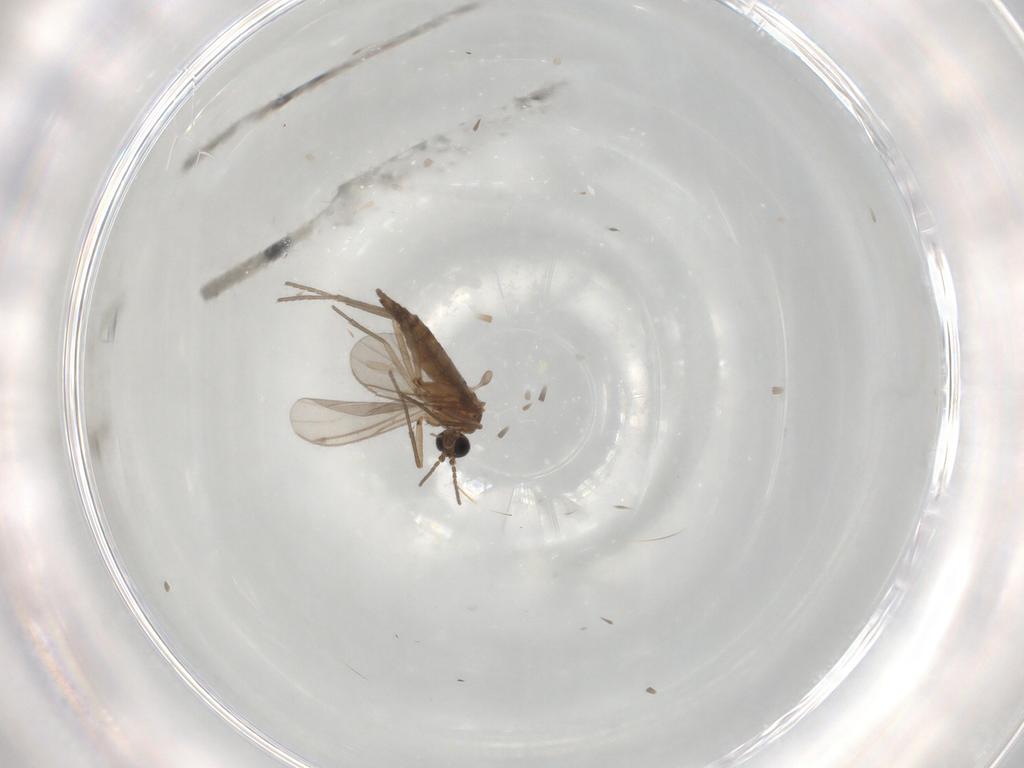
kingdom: Animalia
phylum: Arthropoda
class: Insecta
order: Diptera
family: Sciaridae
